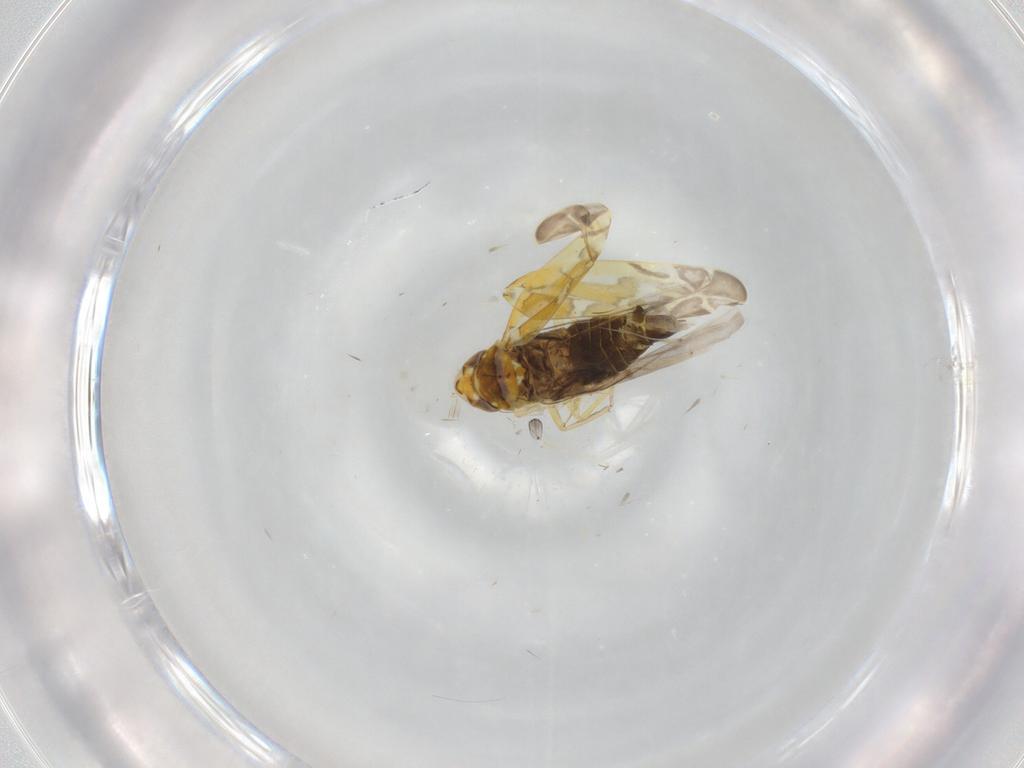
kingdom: Animalia
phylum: Arthropoda
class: Insecta
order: Hemiptera
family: Cicadellidae
